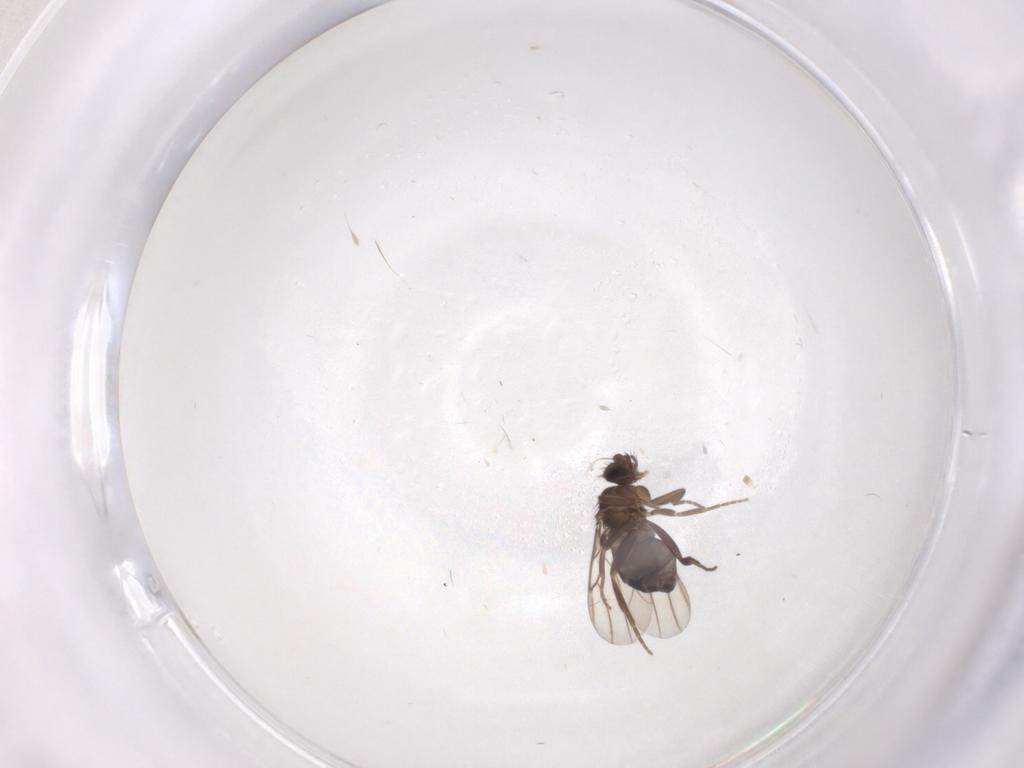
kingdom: Animalia
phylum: Arthropoda
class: Insecta
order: Diptera
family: Phoridae
